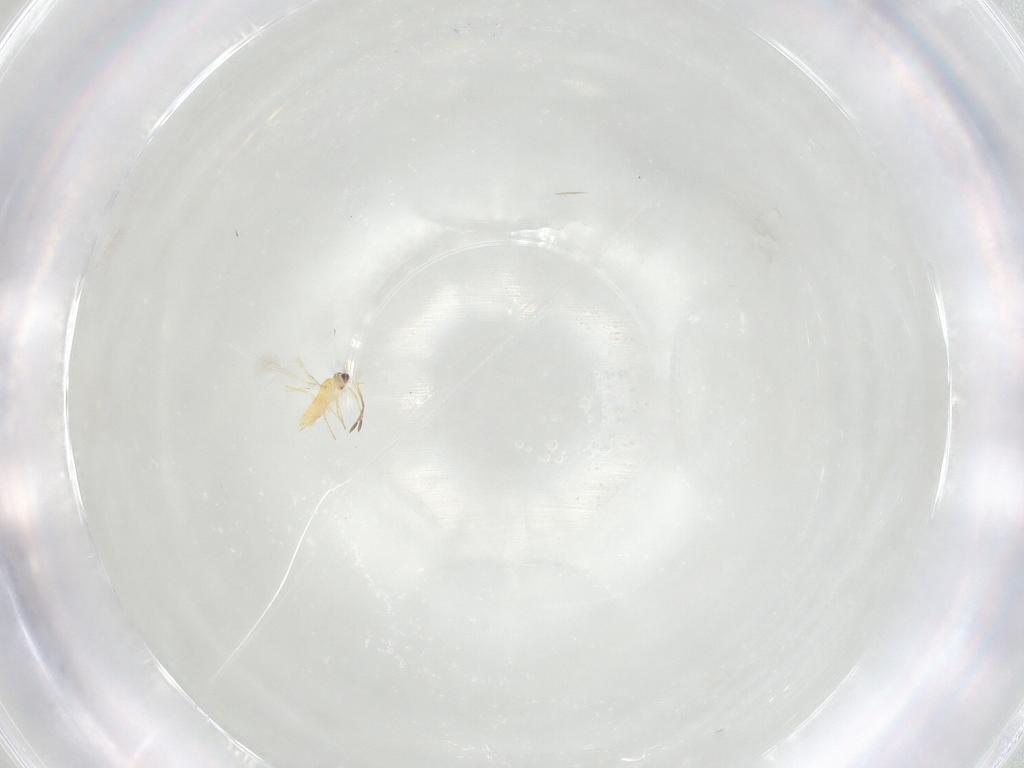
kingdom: Animalia
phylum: Arthropoda
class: Insecta
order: Hymenoptera
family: Mymaridae
